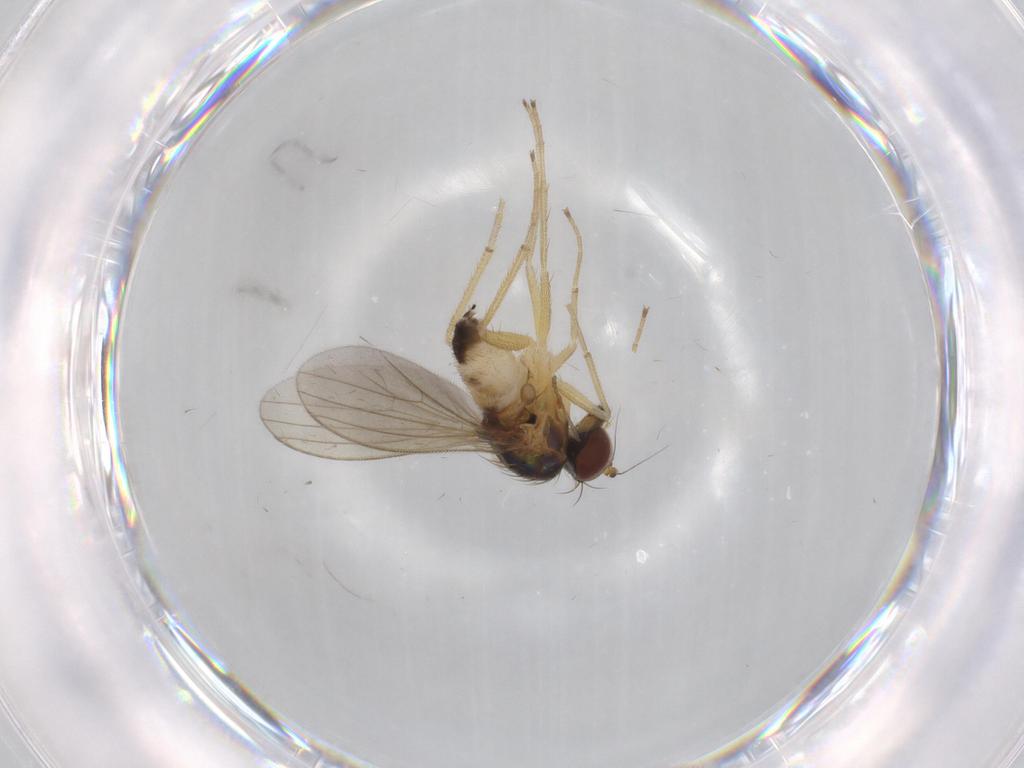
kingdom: Animalia
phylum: Arthropoda
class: Insecta
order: Diptera
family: Dolichopodidae
